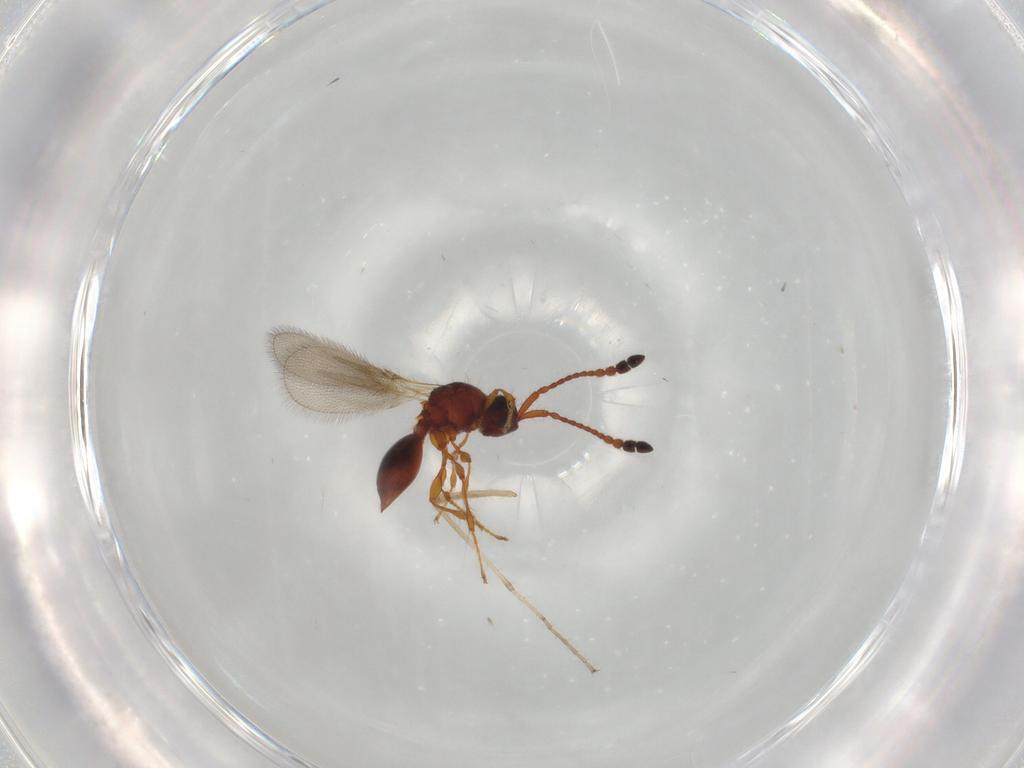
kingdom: Animalia
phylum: Arthropoda
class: Insecta
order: Hymenoptera
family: Diapriidae
